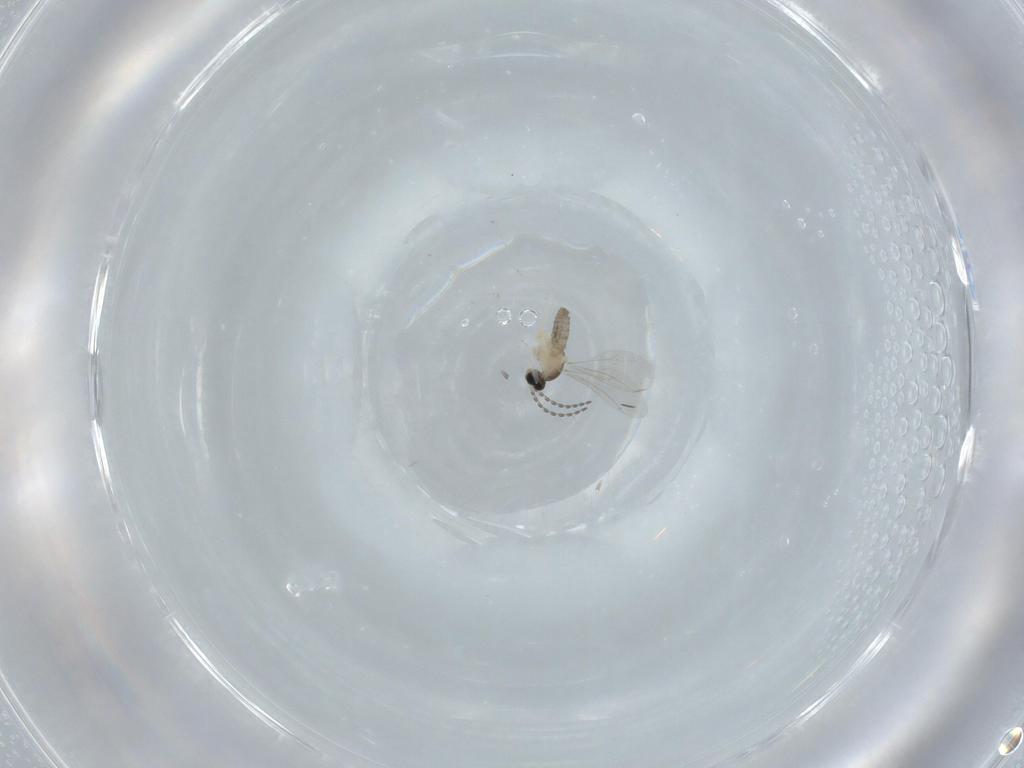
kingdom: Animalia
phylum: Arthropoda
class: Insecta
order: Diptera
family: Cecidomyiidae
